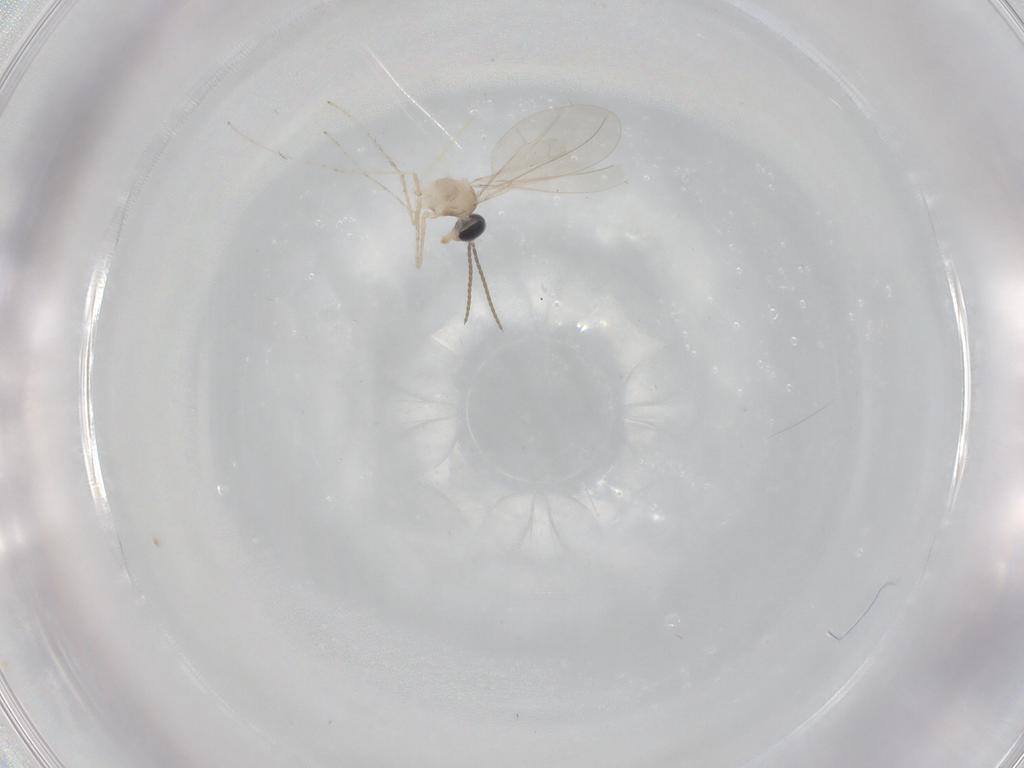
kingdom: Animalia
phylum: Arthropoda
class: Insecta
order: Diptera
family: Cecidomyiidae
